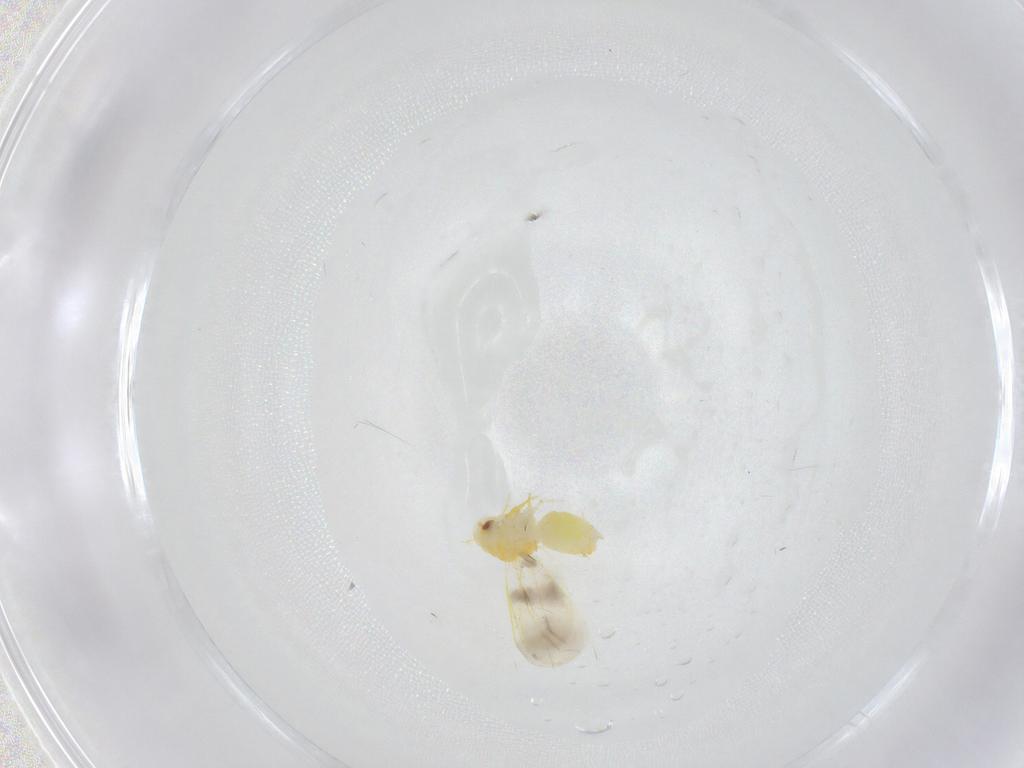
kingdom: Animalia
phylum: Arthropoda
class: Insecta
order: Hemiptera
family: Aleyrodidae
